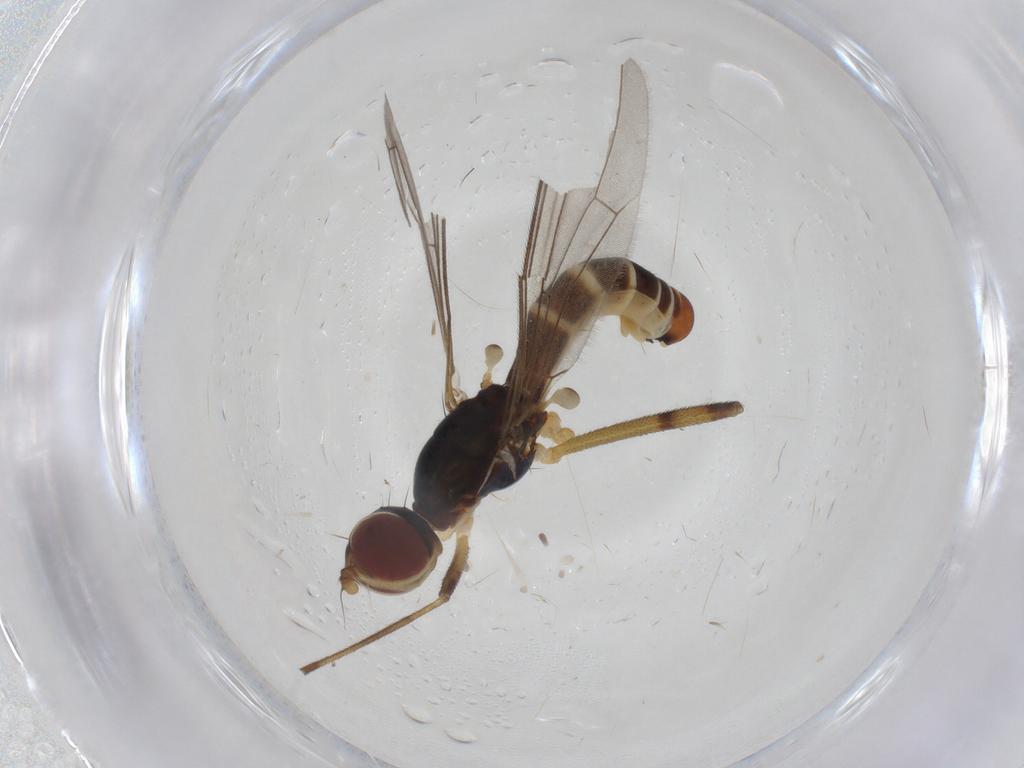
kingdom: Animalia
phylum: Arthropoda
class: Insecta
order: Diptera
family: Micropezidae
